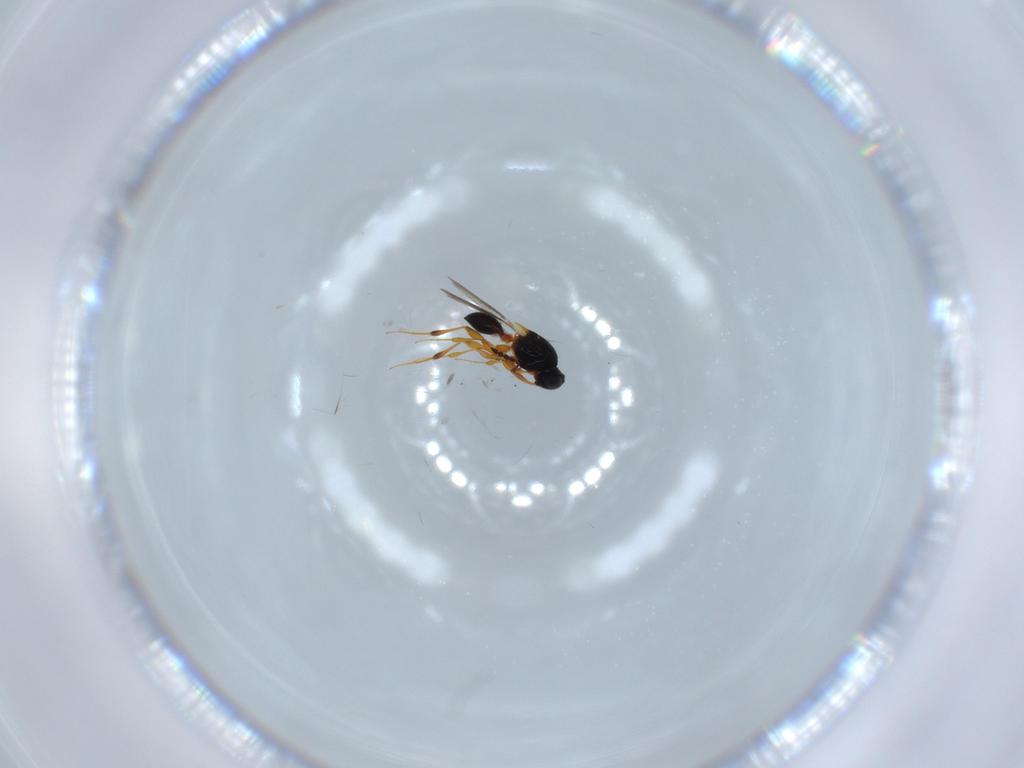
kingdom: Animalia
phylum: Arthropoda
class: Insecta
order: Hymenoptera
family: Platygastridae
